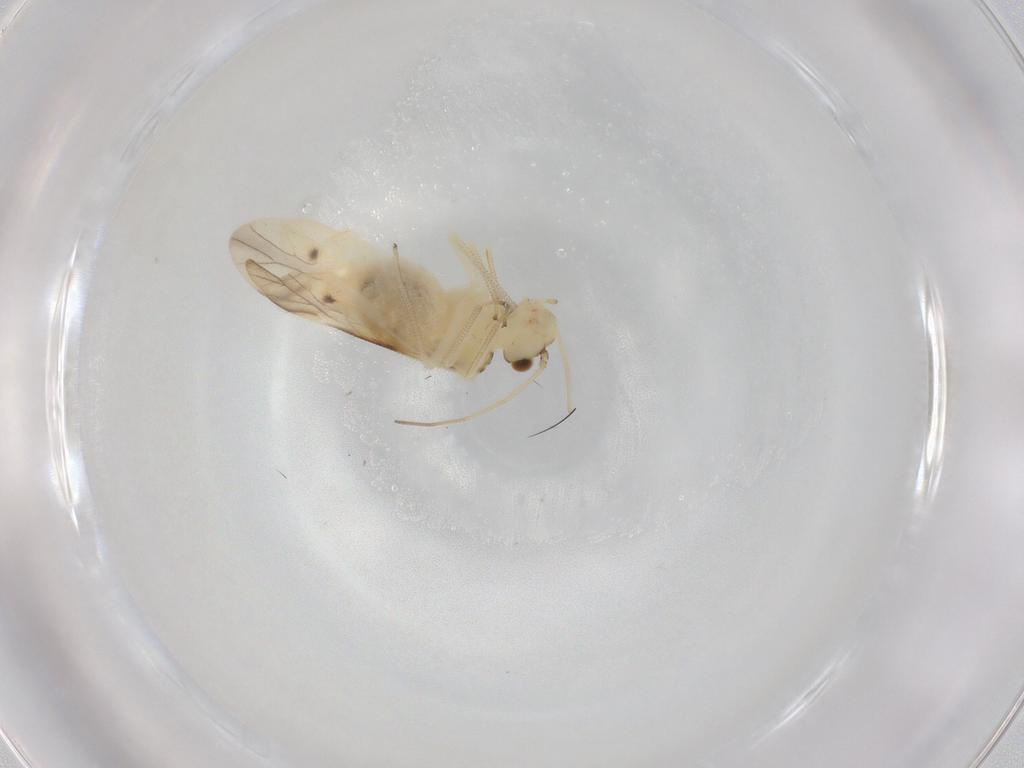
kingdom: Animalia
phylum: Arthropoda
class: Insecta
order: Psocodea
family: Caeciliusidae
